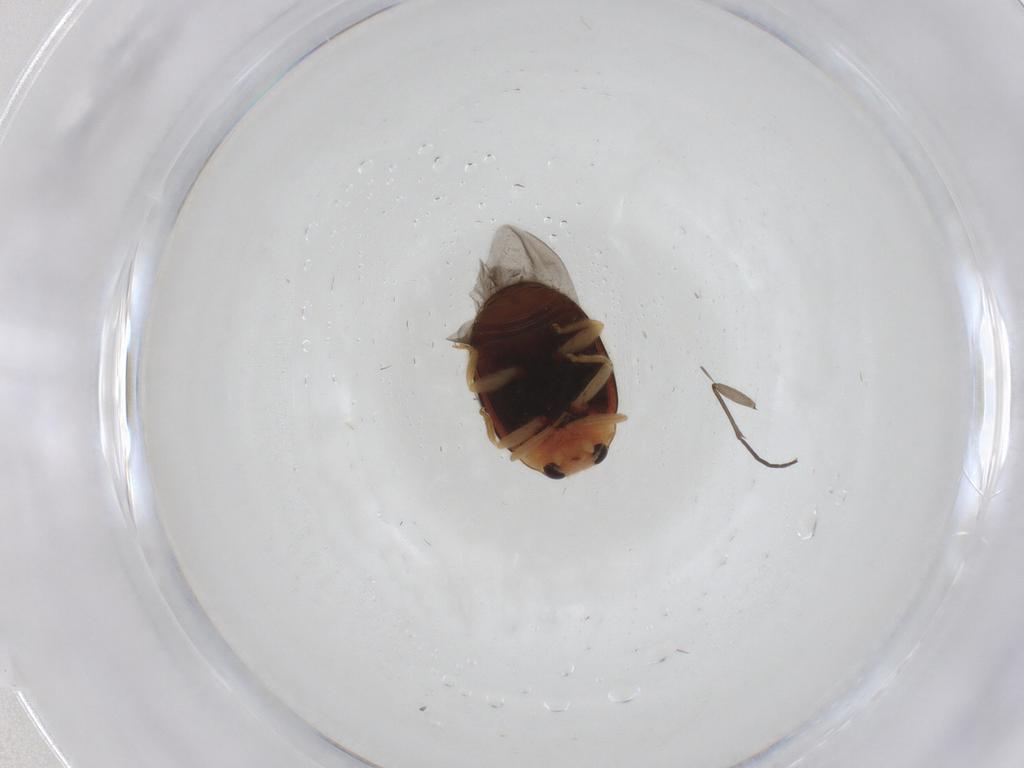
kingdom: Animalia
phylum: Arthropoda
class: Insecta
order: Coleoptera
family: Coccinellidae
